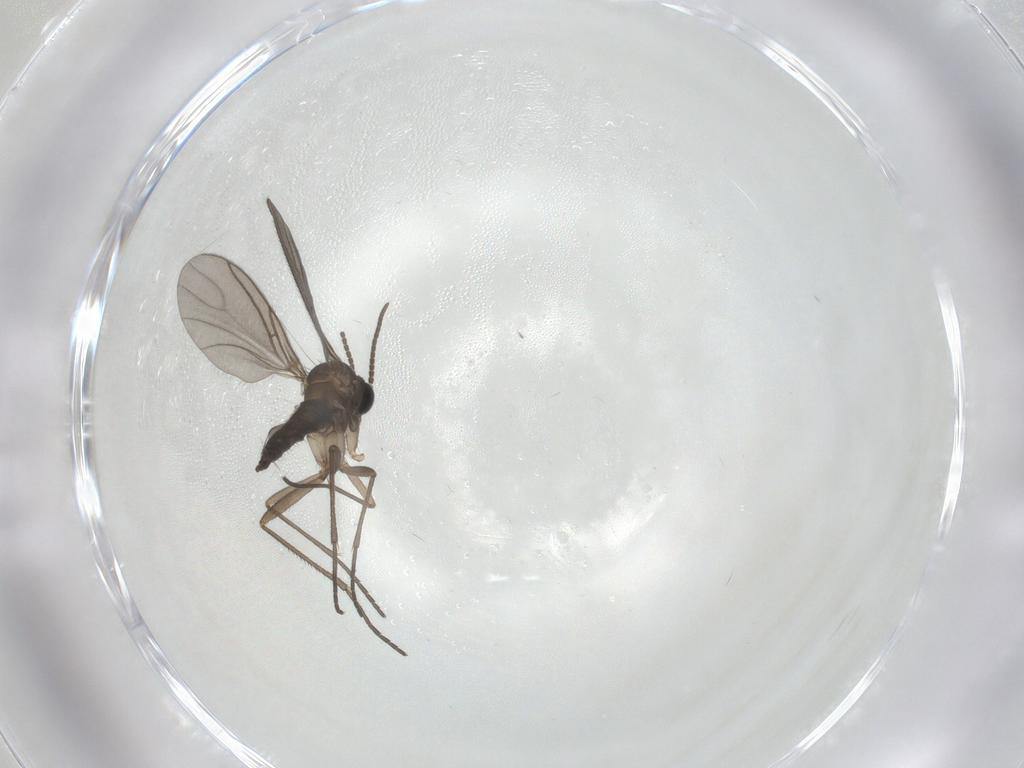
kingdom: Animalia
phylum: Arthropoda
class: Insecta
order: Diptera
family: Sciaridae
